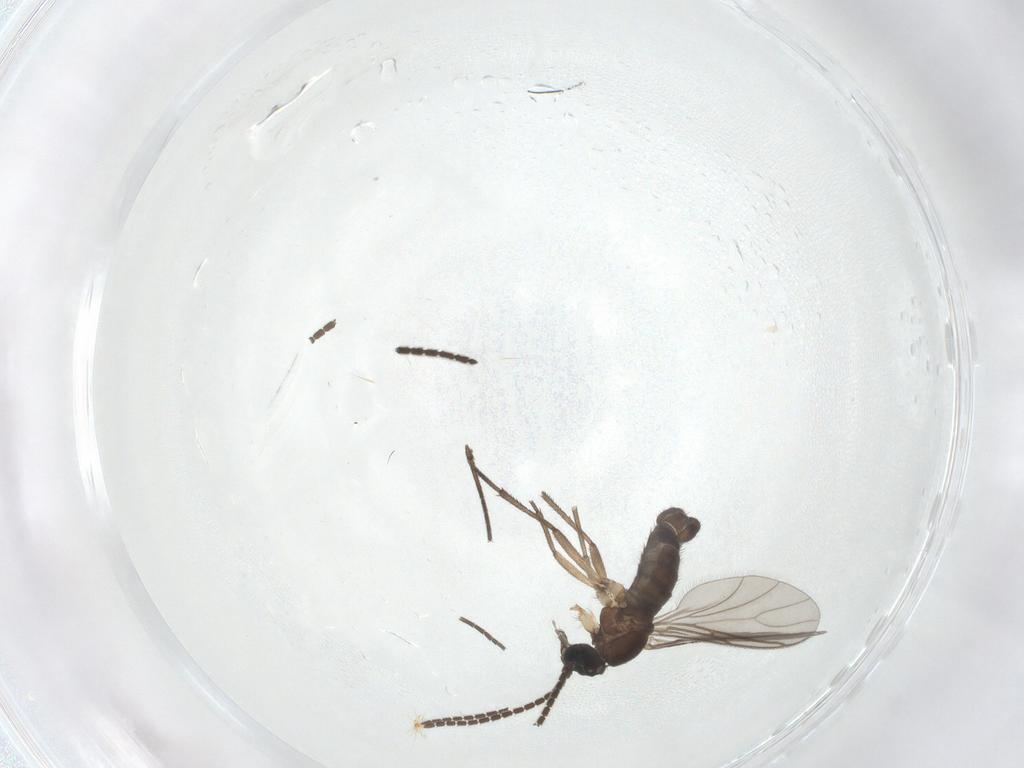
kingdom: Animalia
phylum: Arthropoda
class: Insecta
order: Diptera
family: Sciaridae
